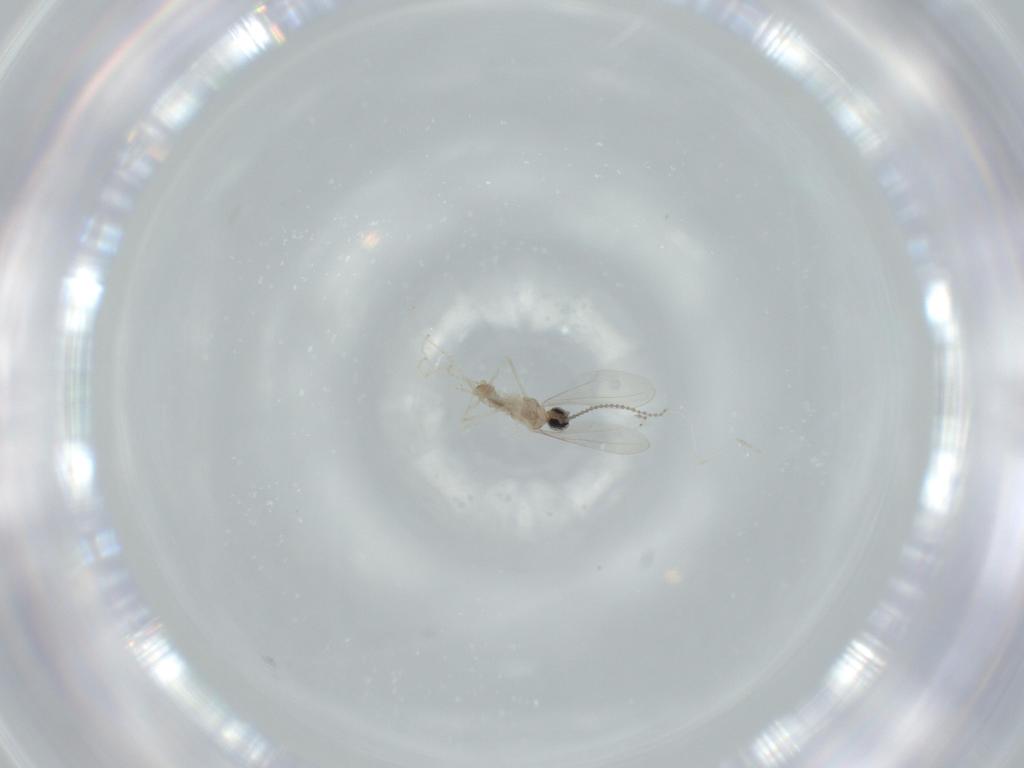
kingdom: Animalia
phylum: Arthropoda
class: Insecta
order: Diptera
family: Cecidomyiidae
